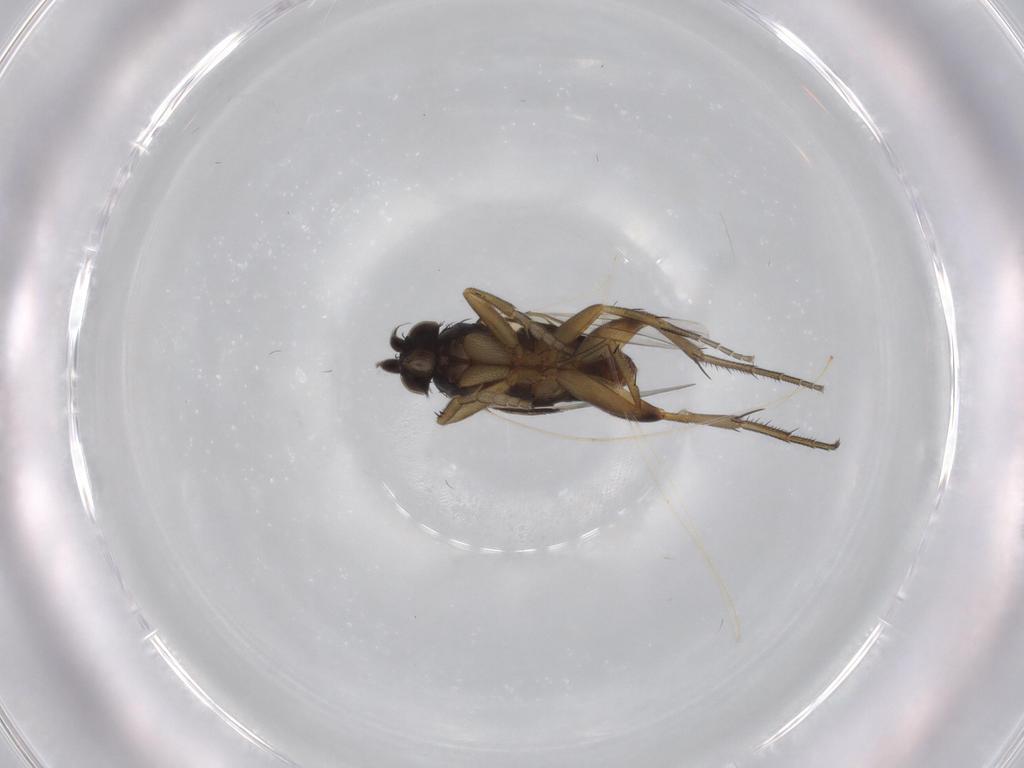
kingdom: Animalia
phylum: Arthropoda
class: Insecta
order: Diptera
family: Phoridae
